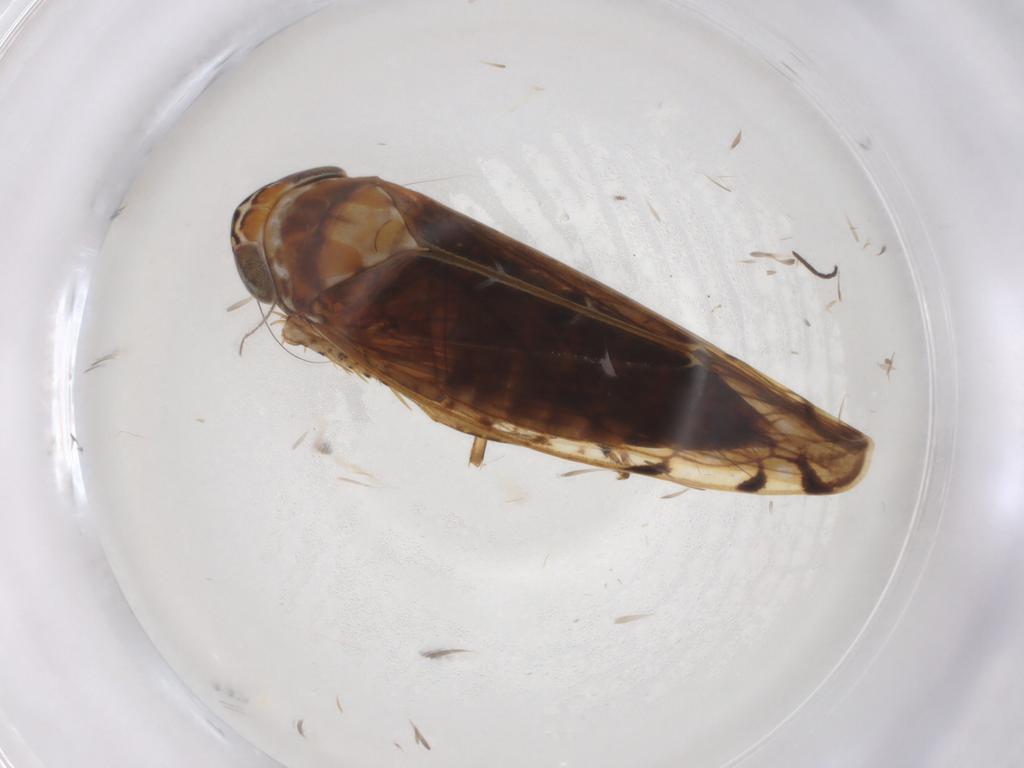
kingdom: Animalia
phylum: Arthropoda
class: Insecta
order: Hemiptera
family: Cicadellidae
